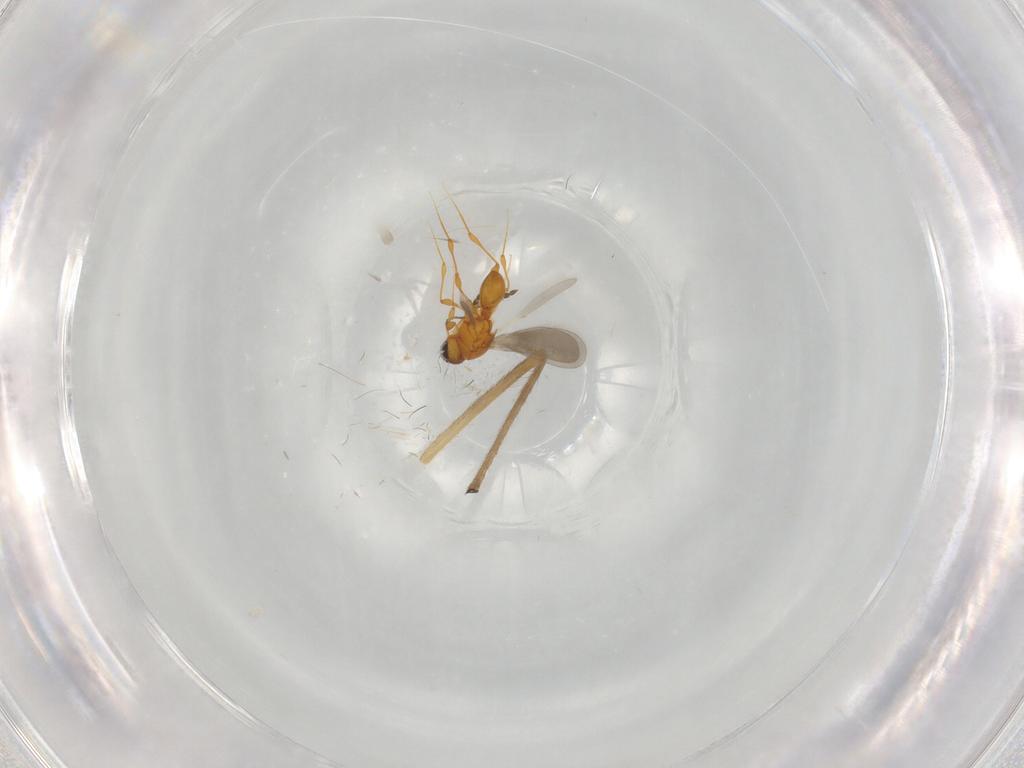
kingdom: Animalia
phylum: Arthropoda
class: Insecta
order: Hymenoptera
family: Platygastridae
